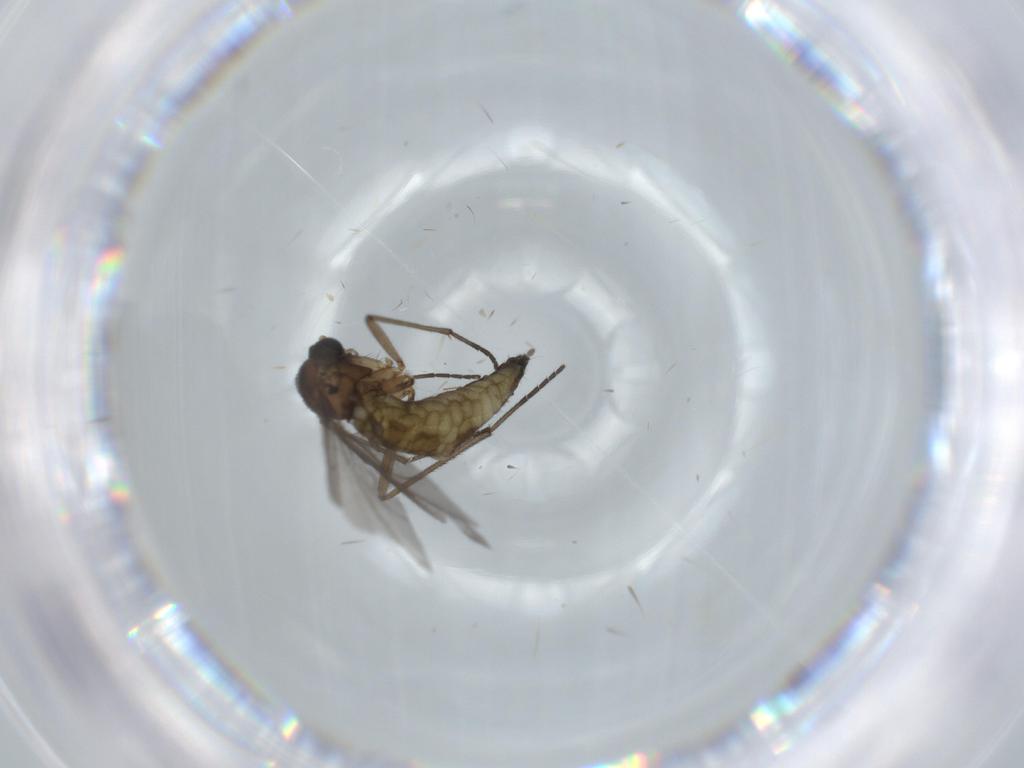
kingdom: Animalia
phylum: Arthropoda
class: Insecta
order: Diptera
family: Sciaridae
